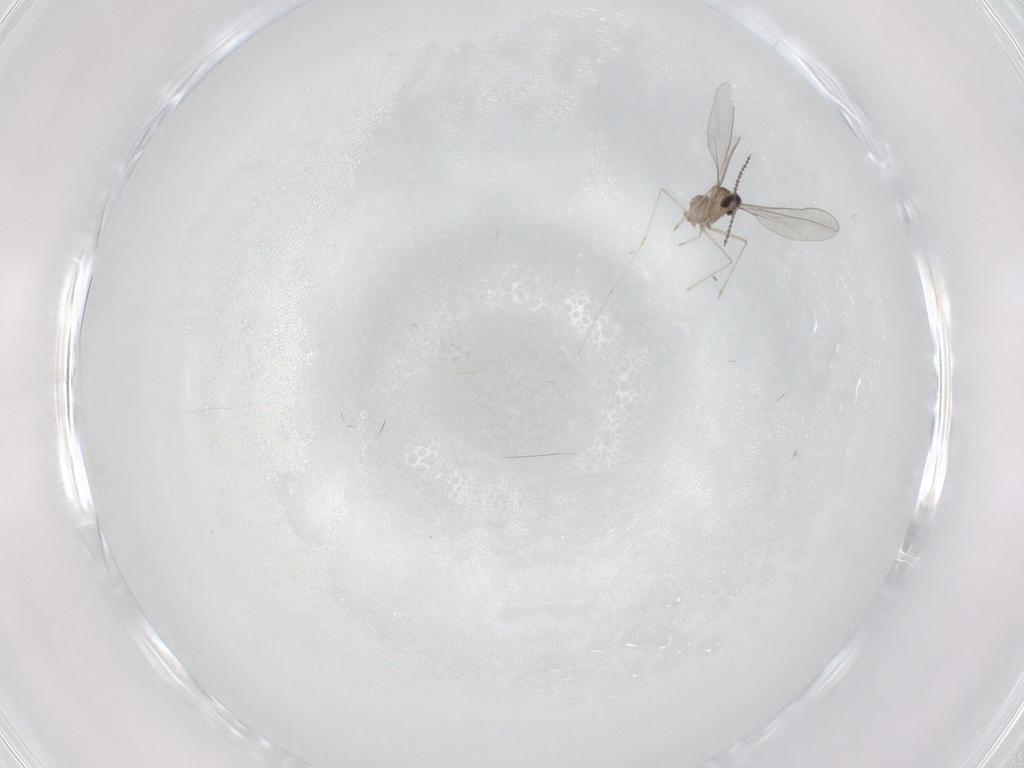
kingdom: Animalia
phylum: Arthropoda
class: Insecta
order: Diptera
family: Cecidomyiidae
